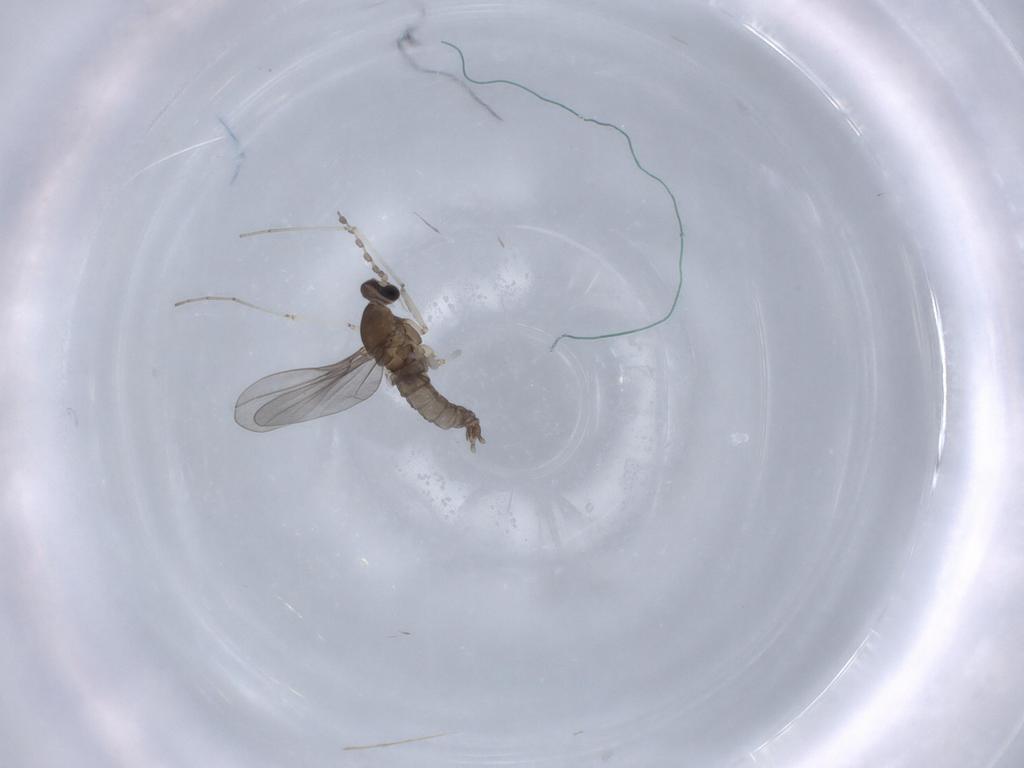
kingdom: Animalia
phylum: Arthropoda
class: Insecta
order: Diptera
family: Cecidomyiidae
